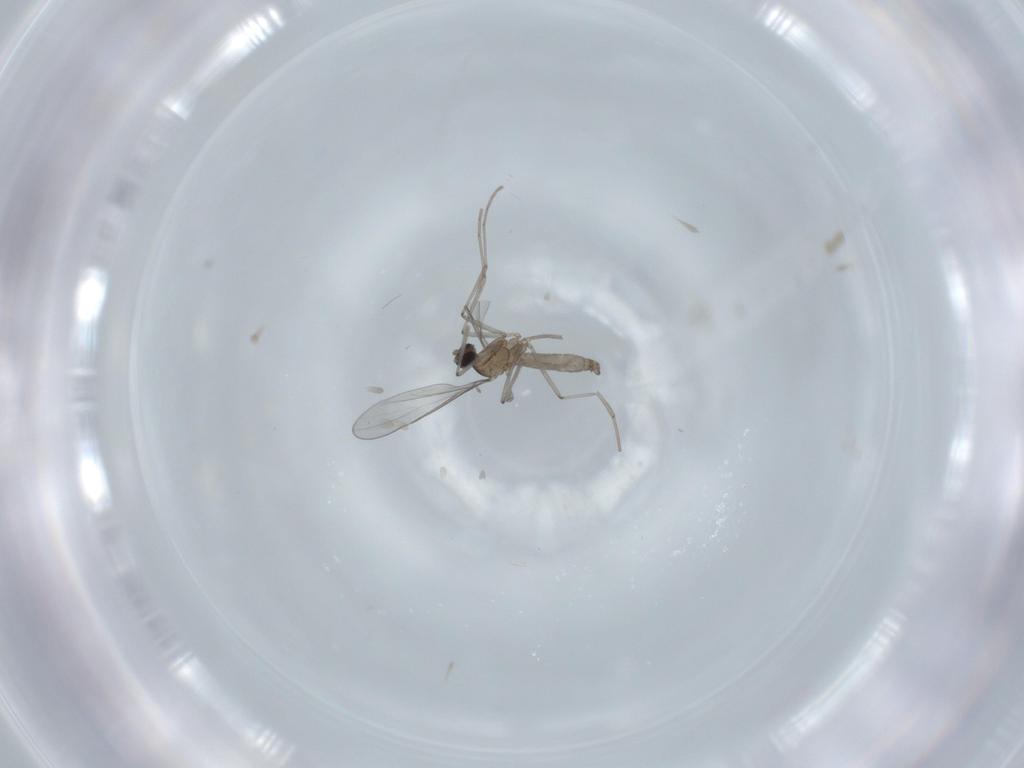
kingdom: Animalia
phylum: Arthropoda
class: Insecta
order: Diptera
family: Cecidomyiidae
